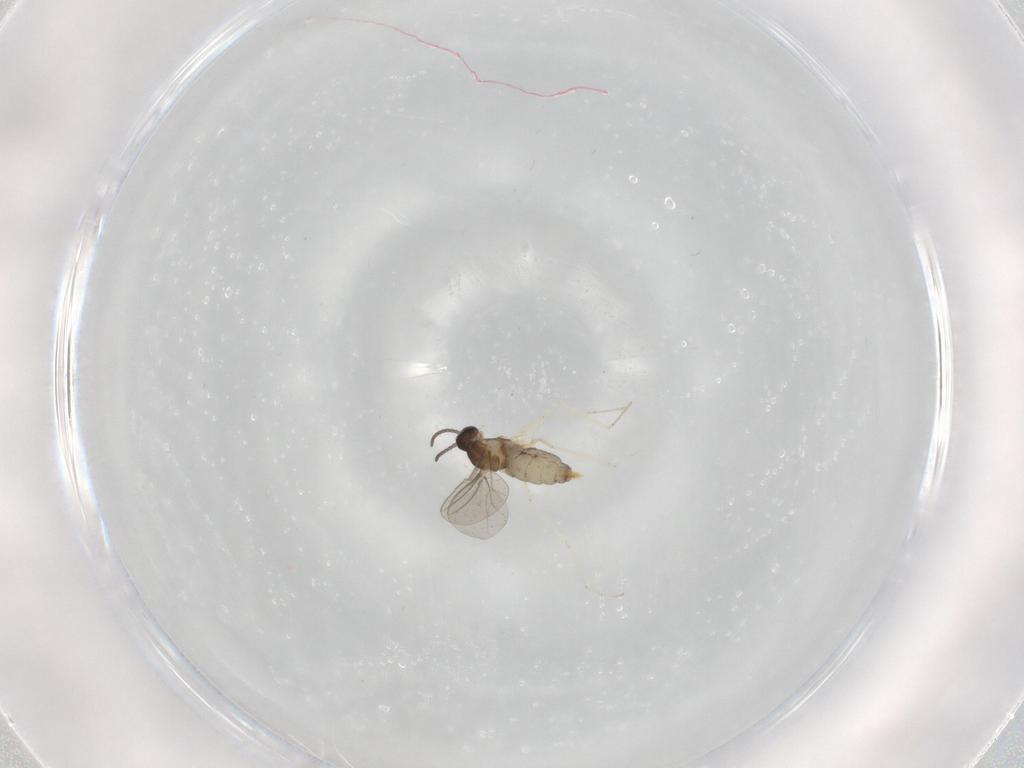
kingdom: Animalia
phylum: Arthropoda
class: Insecta
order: Diptera
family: Cecidomyiidae
